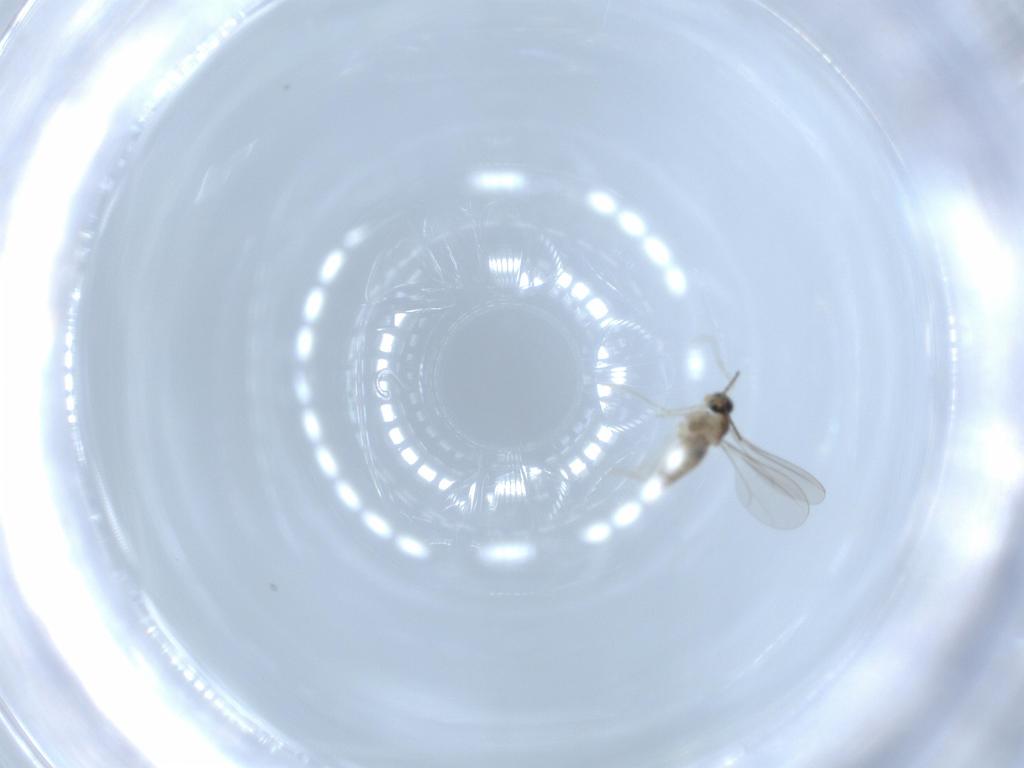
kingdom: Animalia
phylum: Arthropoda
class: Insecta
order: Diptera
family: Cecidomyiidae
